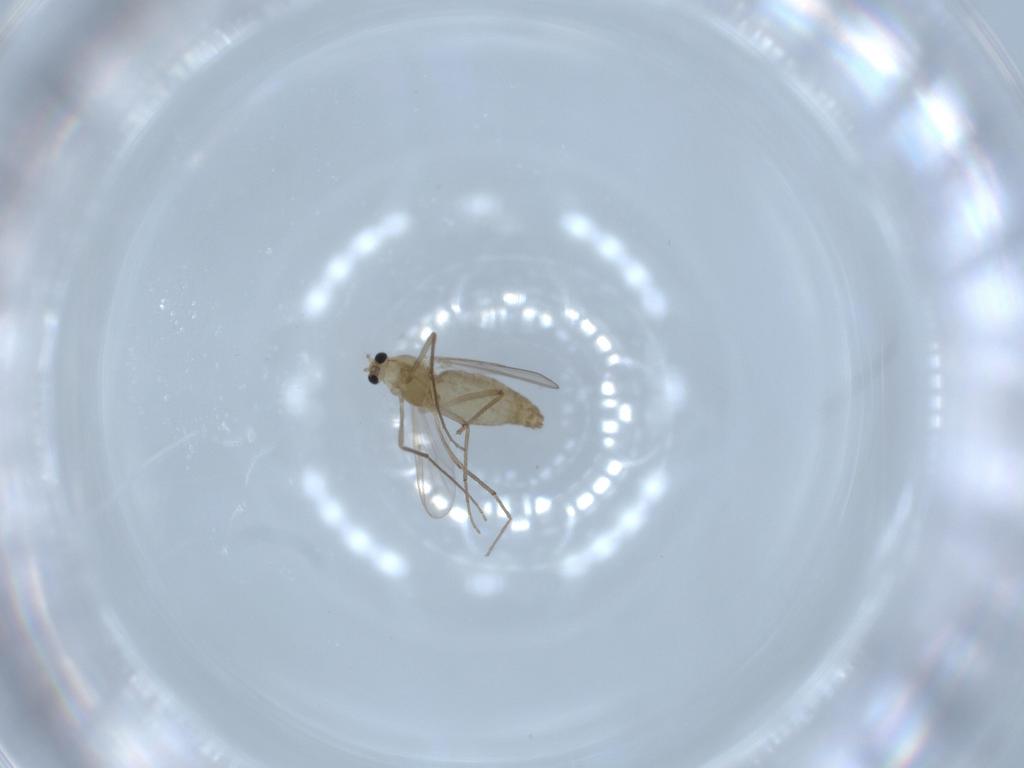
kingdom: Animalia
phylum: Arthropoda
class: Insecta
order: Diptera
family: Chironomidae
